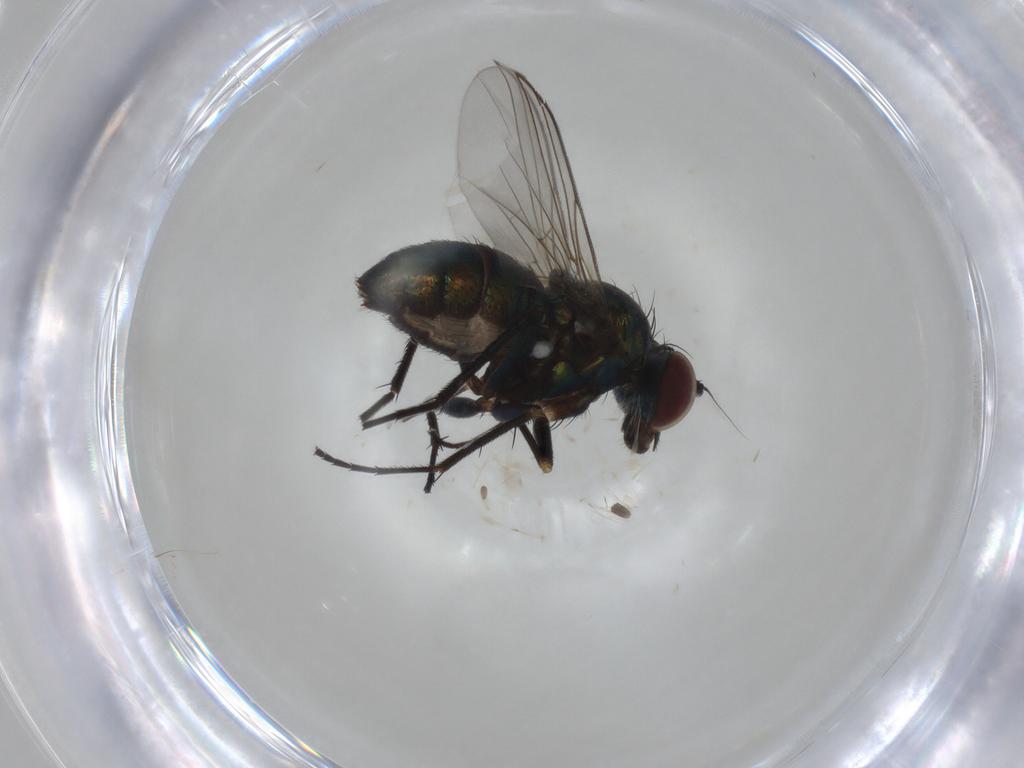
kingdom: Animalia
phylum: Arthropoda
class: Insecta
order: Diptera
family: Dolichopodidae
